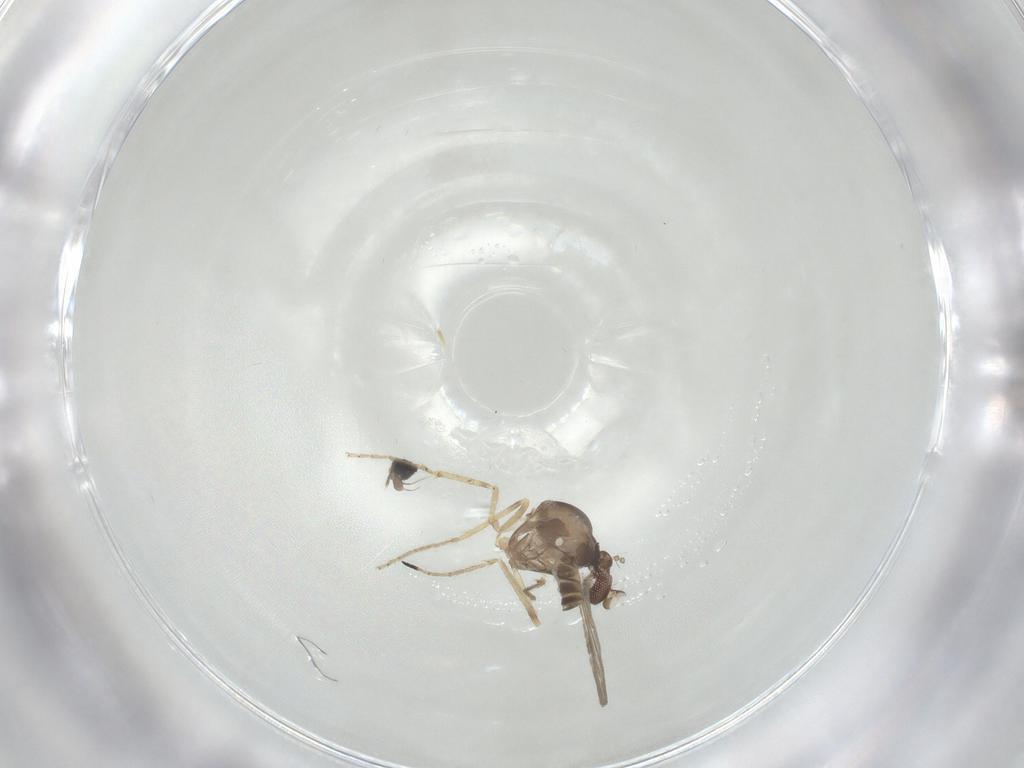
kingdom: Animalia
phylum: Arthropoda
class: Insecta
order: Diptera
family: Ceratopogonidae
